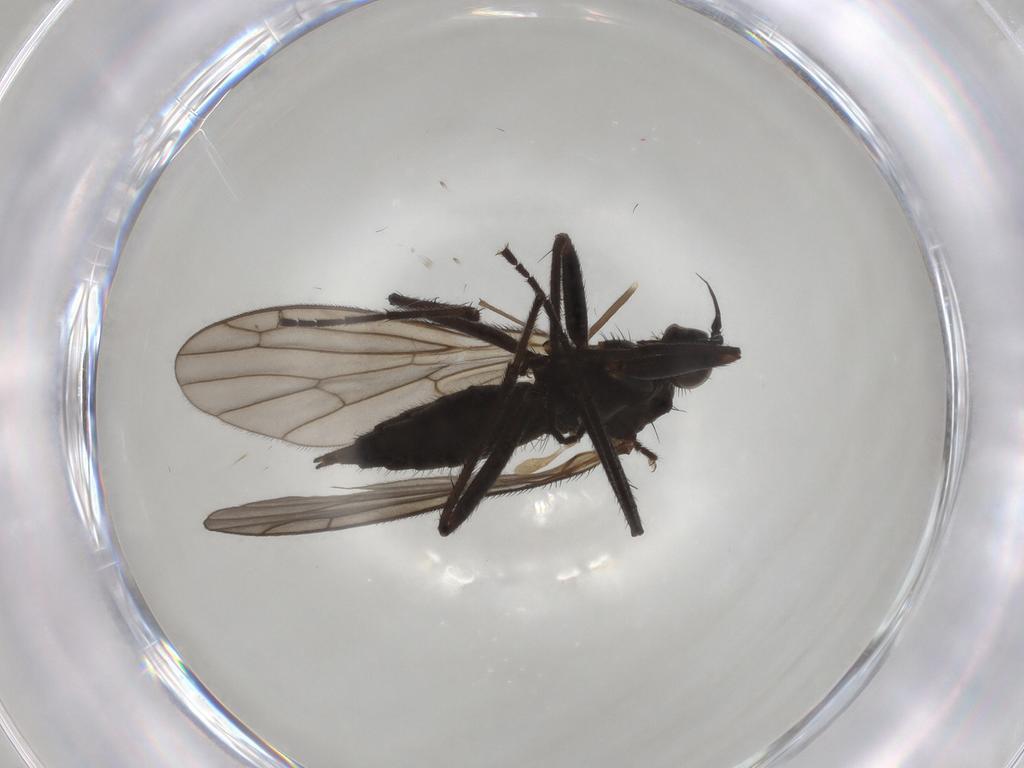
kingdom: Animalia
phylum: Arthropoda
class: Insecta
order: Diptera
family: Empididae
